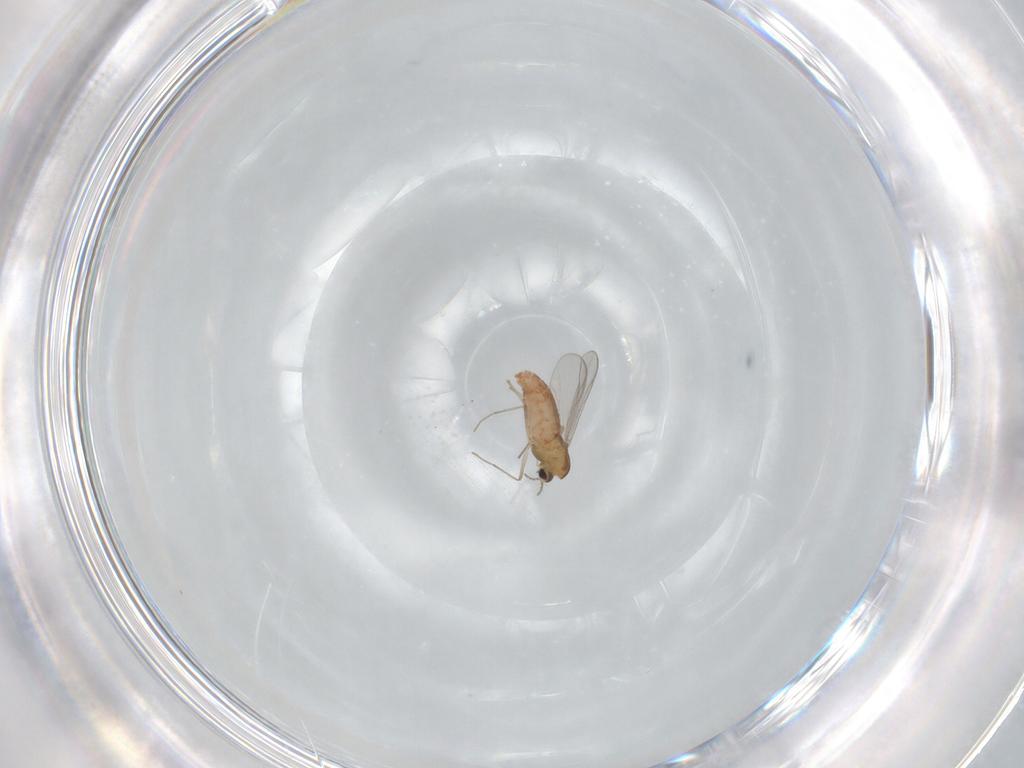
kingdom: Animalia
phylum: Arthropoda
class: Insecta
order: Diptera
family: Chironomidae
